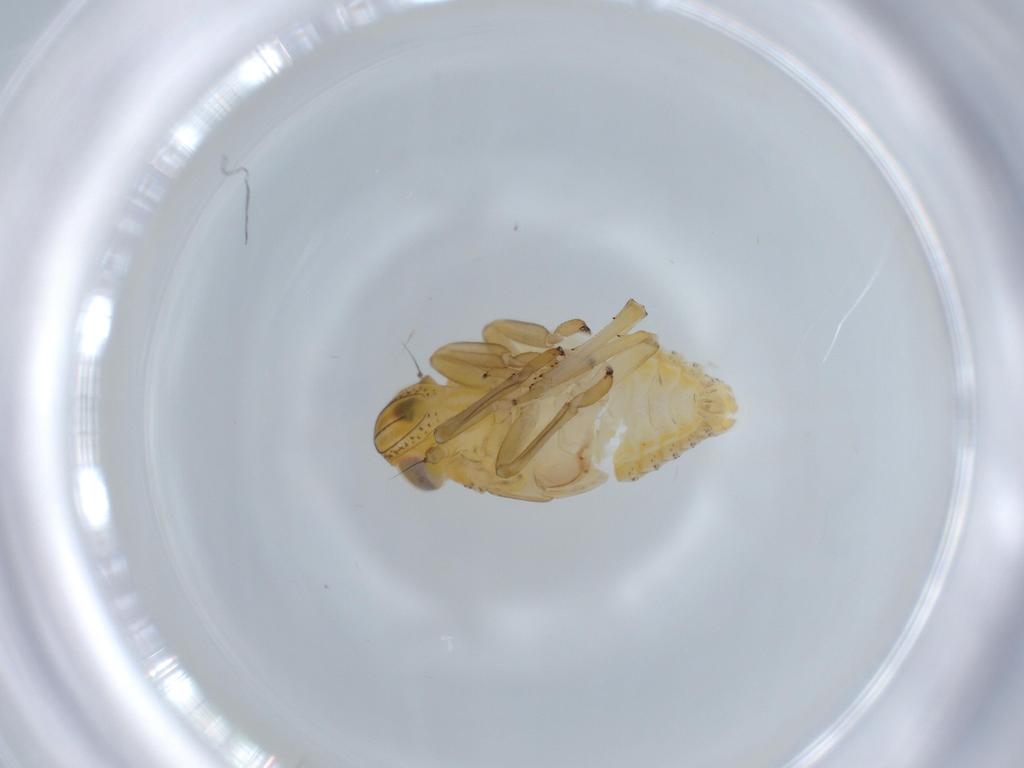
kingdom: Animalia
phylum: Arthropoda
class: Insecta
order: Hemiptera
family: Issidae
